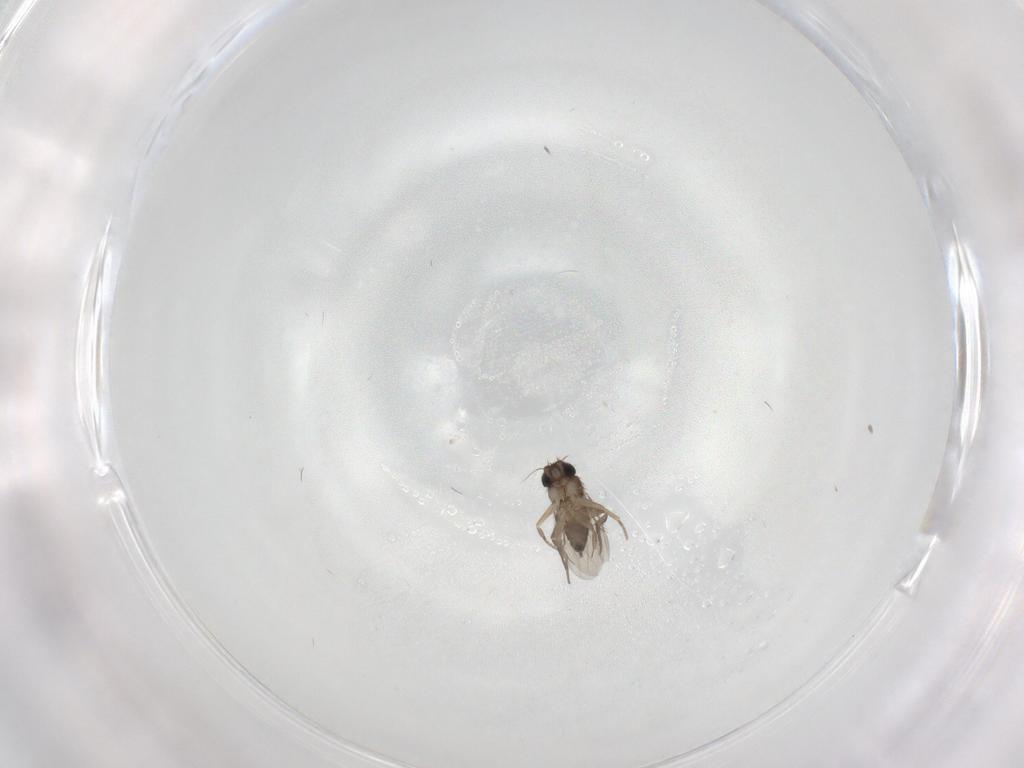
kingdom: Animalia
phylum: Arthropoda
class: Insecta
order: Diptera
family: Phoridae
